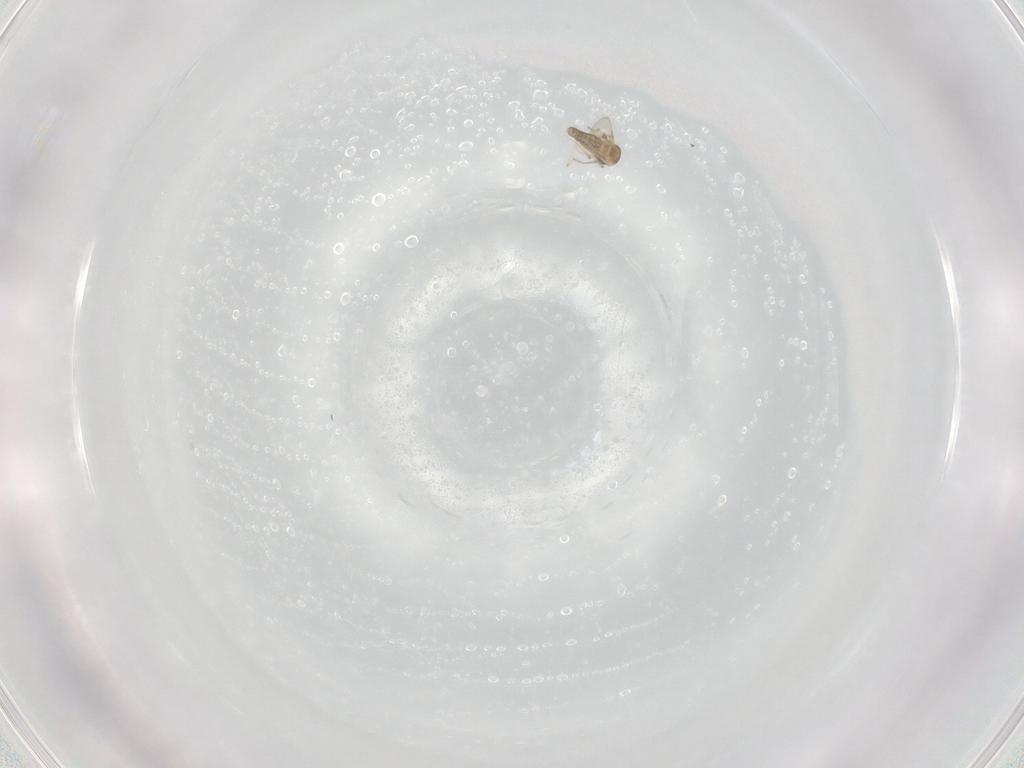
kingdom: Animalia
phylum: Arthropoda
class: Insecta
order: Diptera
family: Ceratopogonidae
